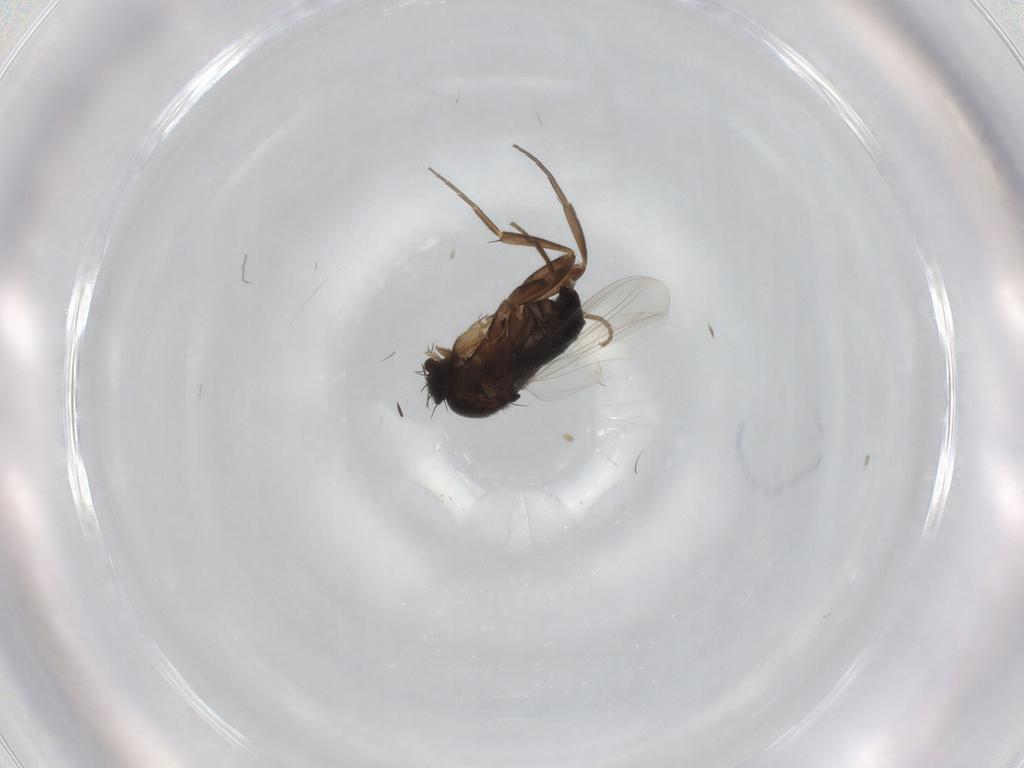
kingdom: Animalia
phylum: Arthropoda
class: Insecta
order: Diptera
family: Phoridae
